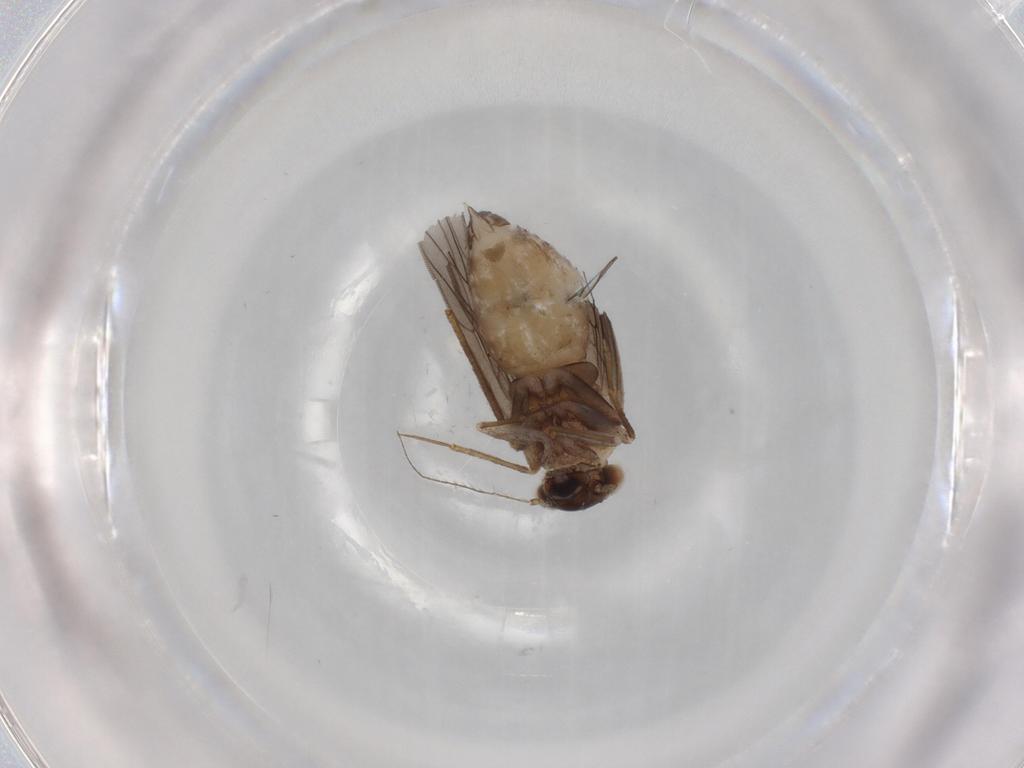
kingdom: Animalia
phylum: Arthropoda
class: Insecta
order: Psocodea
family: Lepidopsocidae
